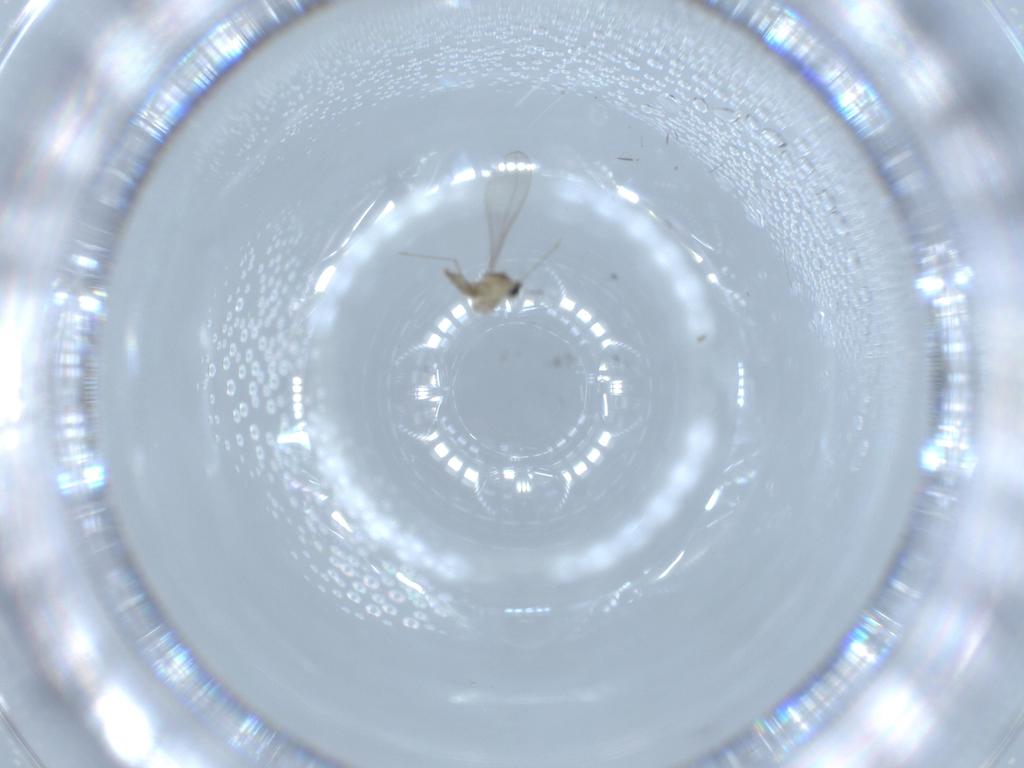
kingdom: Animalia
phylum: Arthropoda
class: Insecta
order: Diptera
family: Cecidomyiidae
